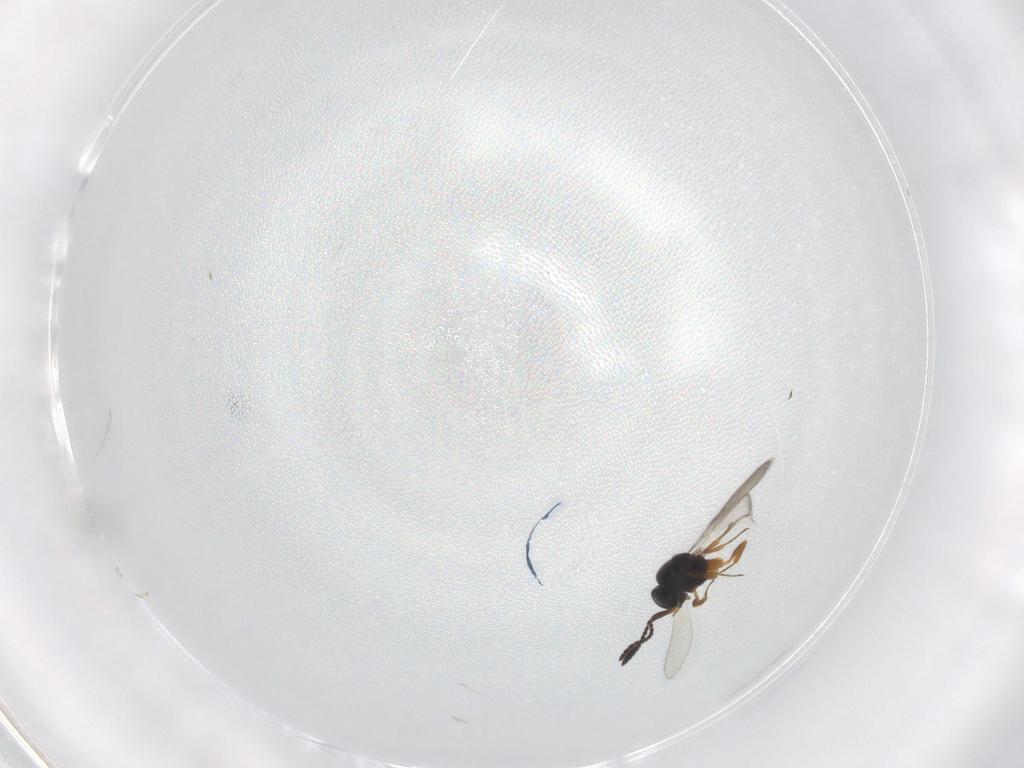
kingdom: Animalia
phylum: Arthropoda
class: Insecta
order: Hymenoptera
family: Scelionidae
